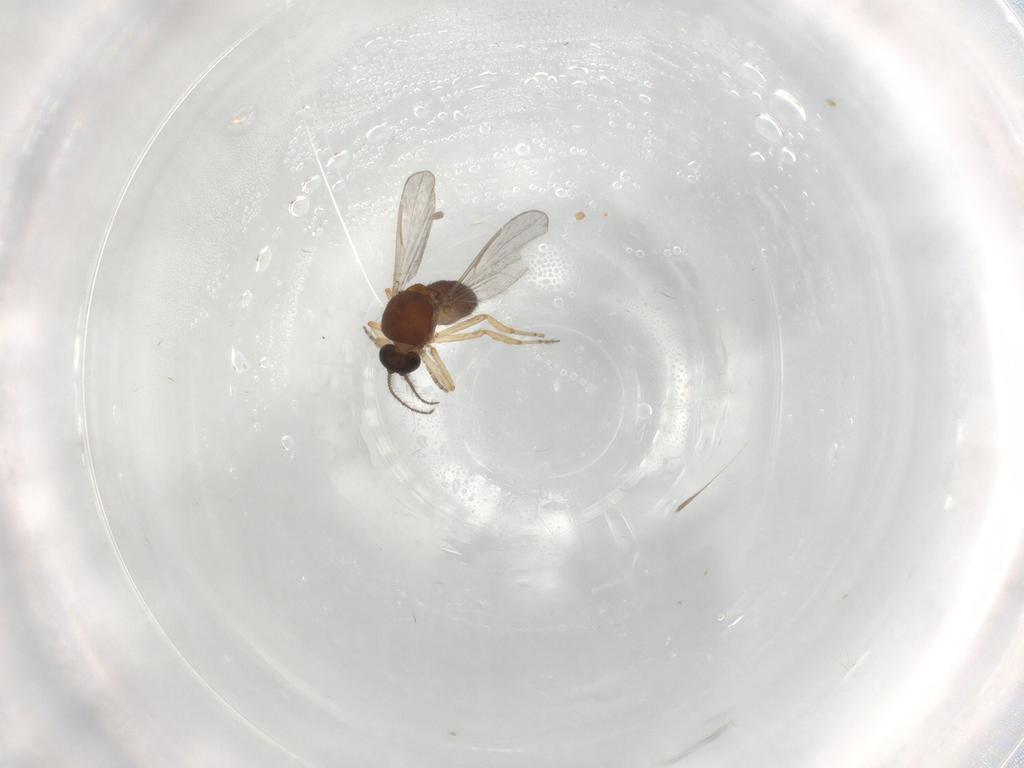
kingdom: Animalia
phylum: Arthropoda
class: Insecta
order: Diptera
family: Ceratopogonidae
